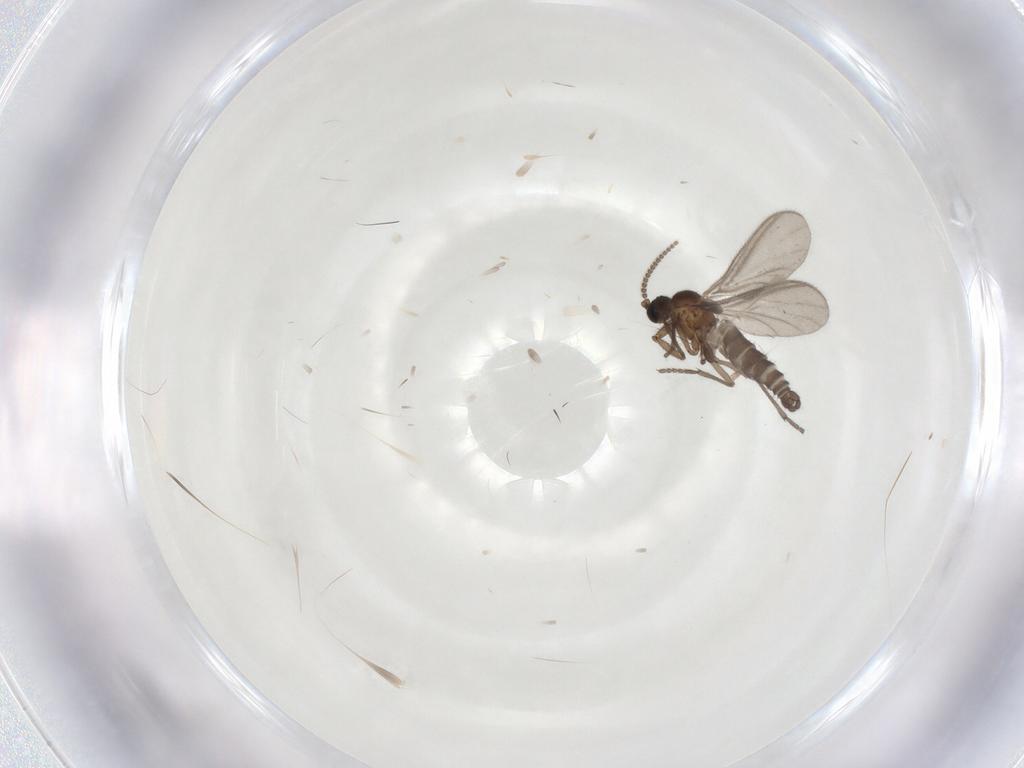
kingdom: Animalia
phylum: Arthropoda
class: Insecta
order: Diptera
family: Sciaridae
